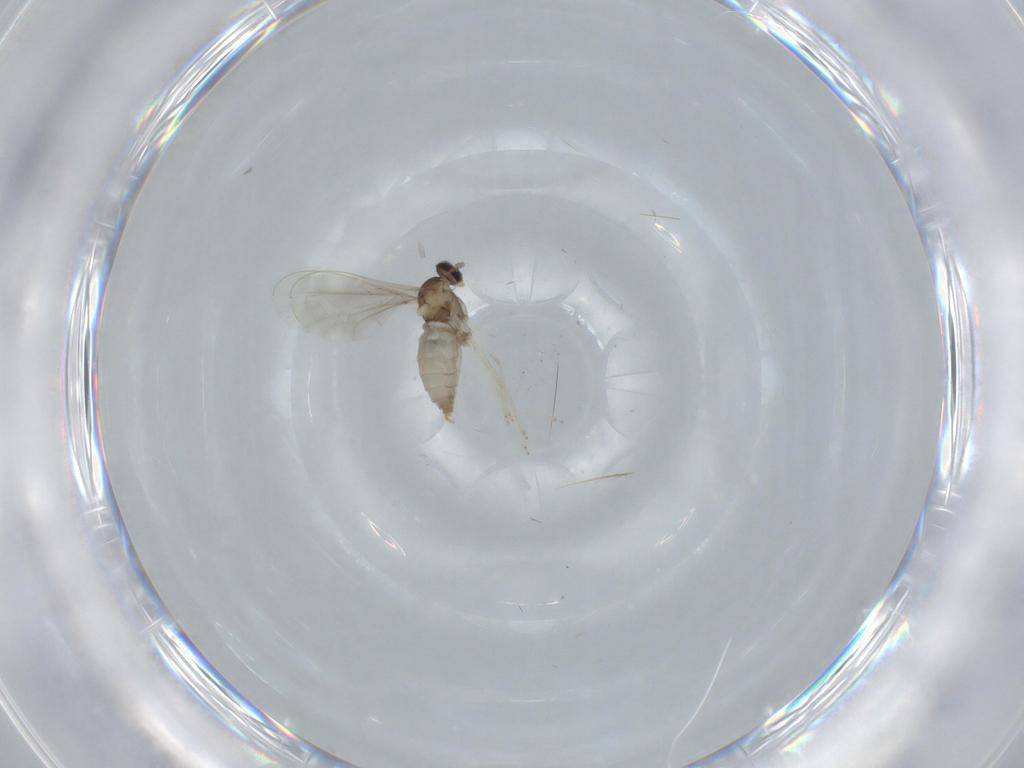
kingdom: Animalia
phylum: Arthropoda
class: Insecta
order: Diptera
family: Cecidomyiidae
